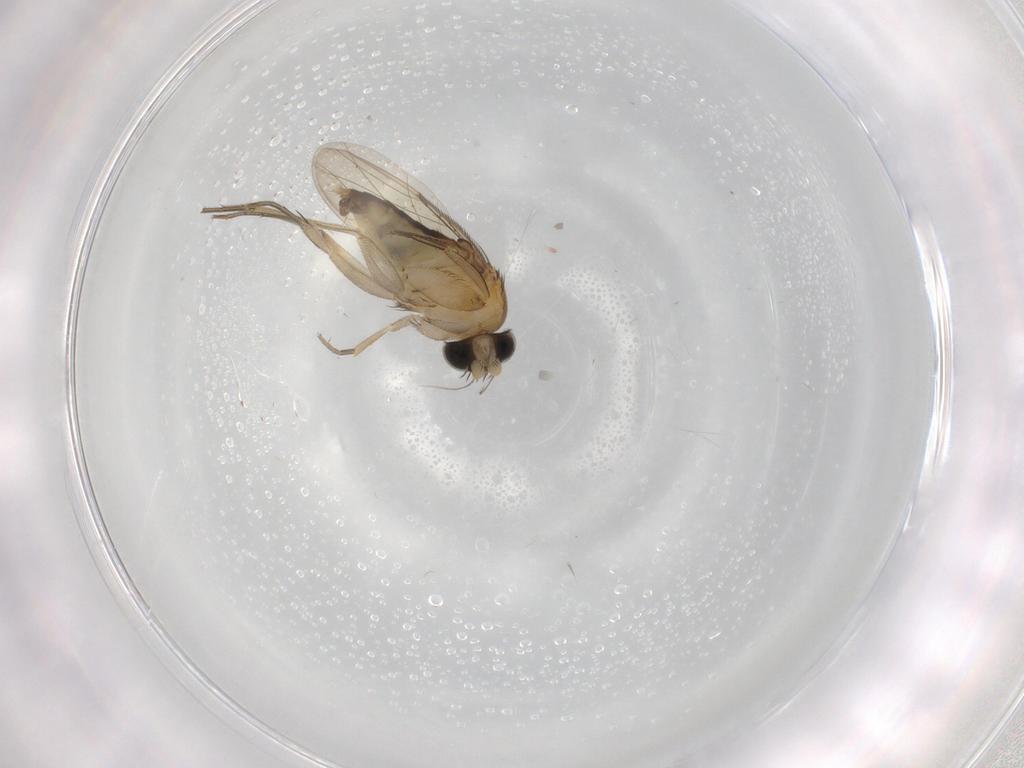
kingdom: Animalia
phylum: Arthropoda
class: Insecta
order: Diptera
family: Phoridae
